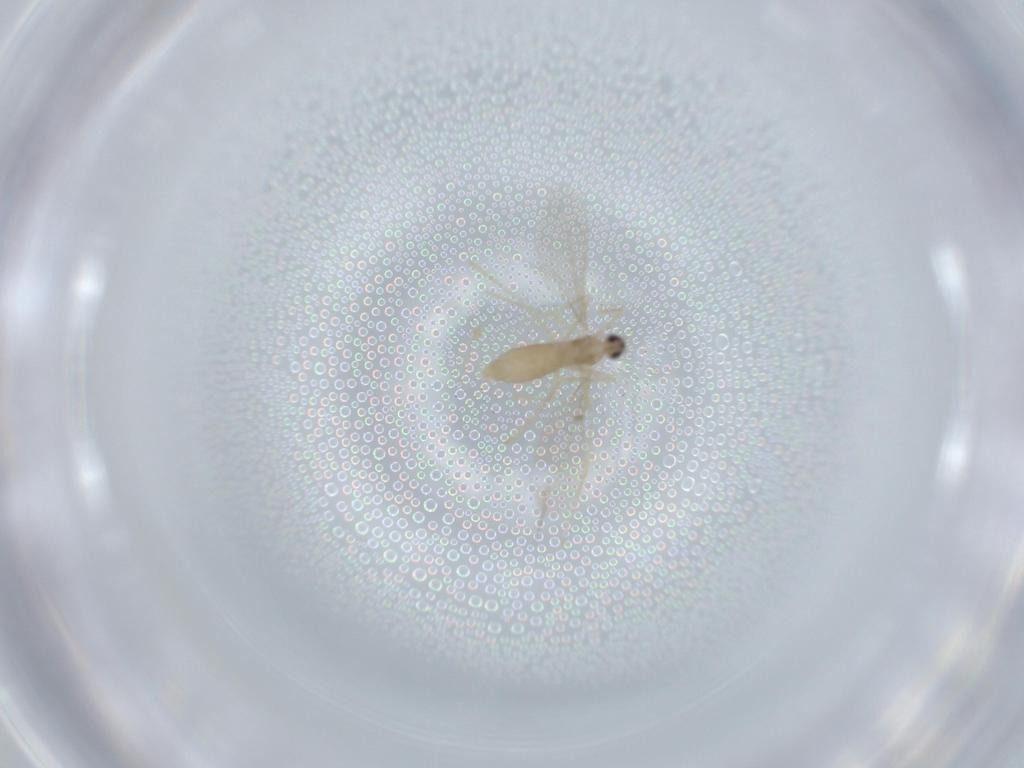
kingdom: Animalia
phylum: Arthropoda
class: Insecta
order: Diptera
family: Cecidomyiidae
